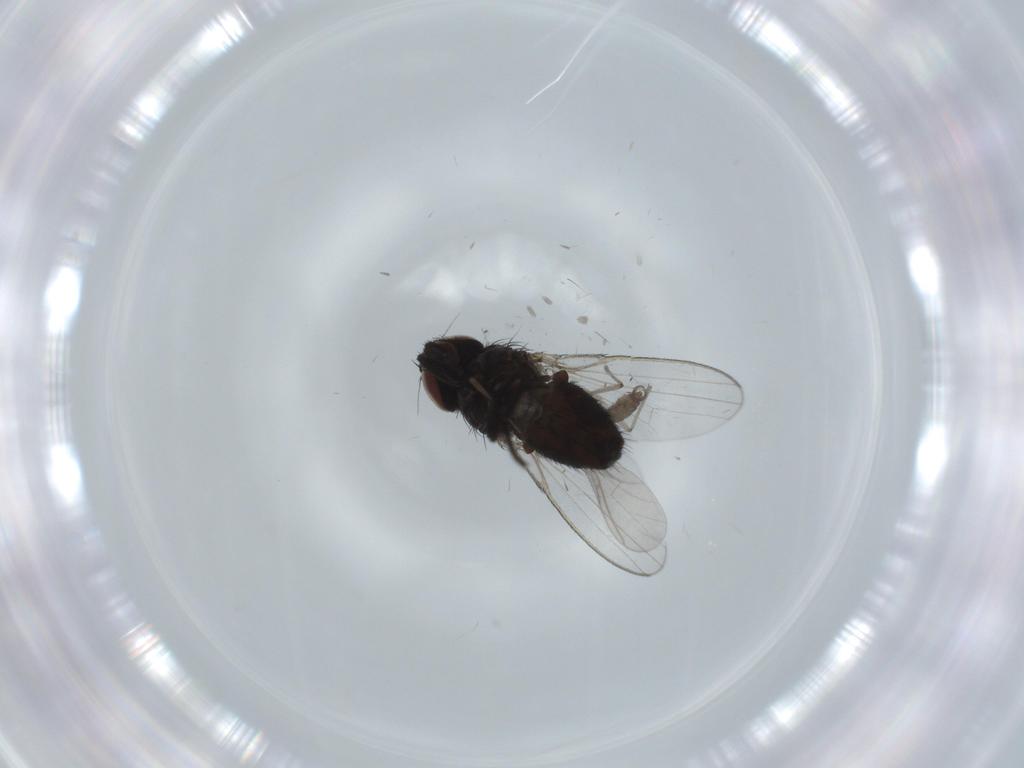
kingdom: Animalia
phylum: Arthropoda
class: Insecta
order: Diptera
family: Sciaridae
